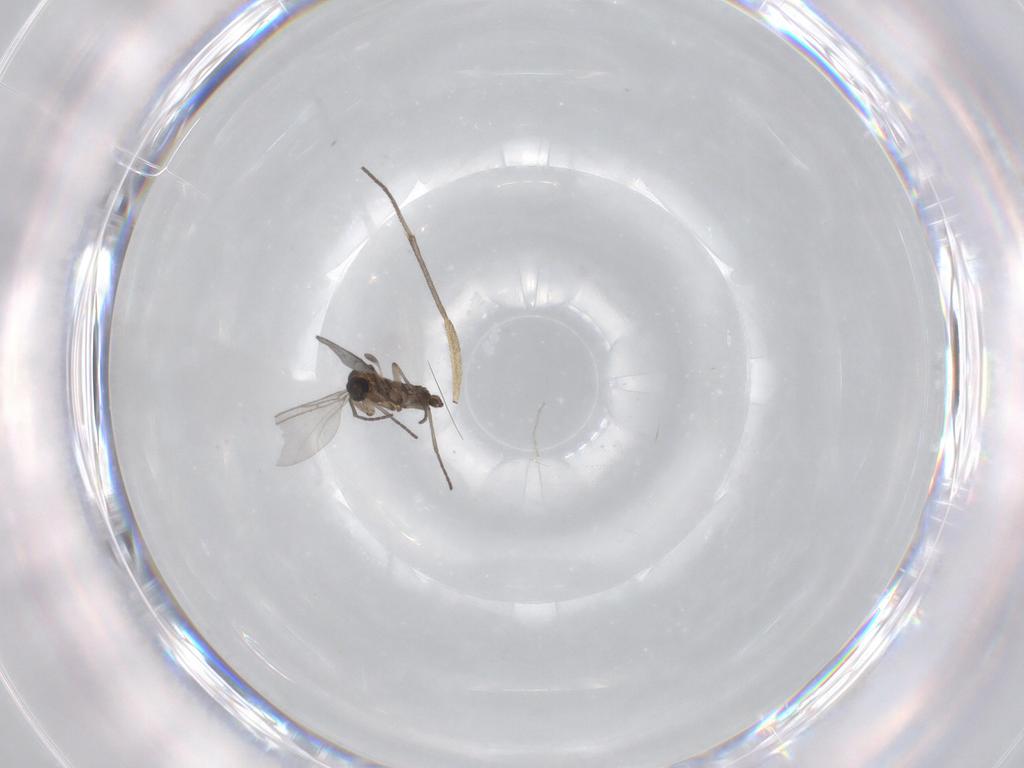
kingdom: Animalia
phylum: Arthropoda
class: Insecta
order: Diptera
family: Sciaridae
